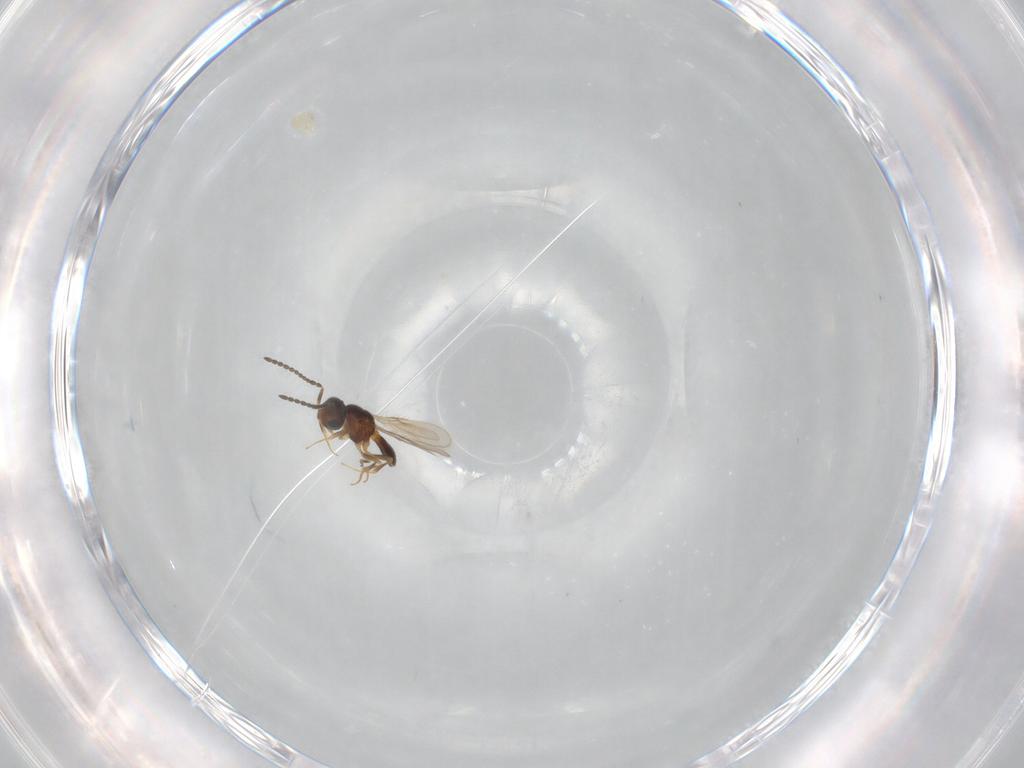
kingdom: Animalia
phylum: Arthropoda
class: Insecta
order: Hymenoptera
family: Scelionidae
